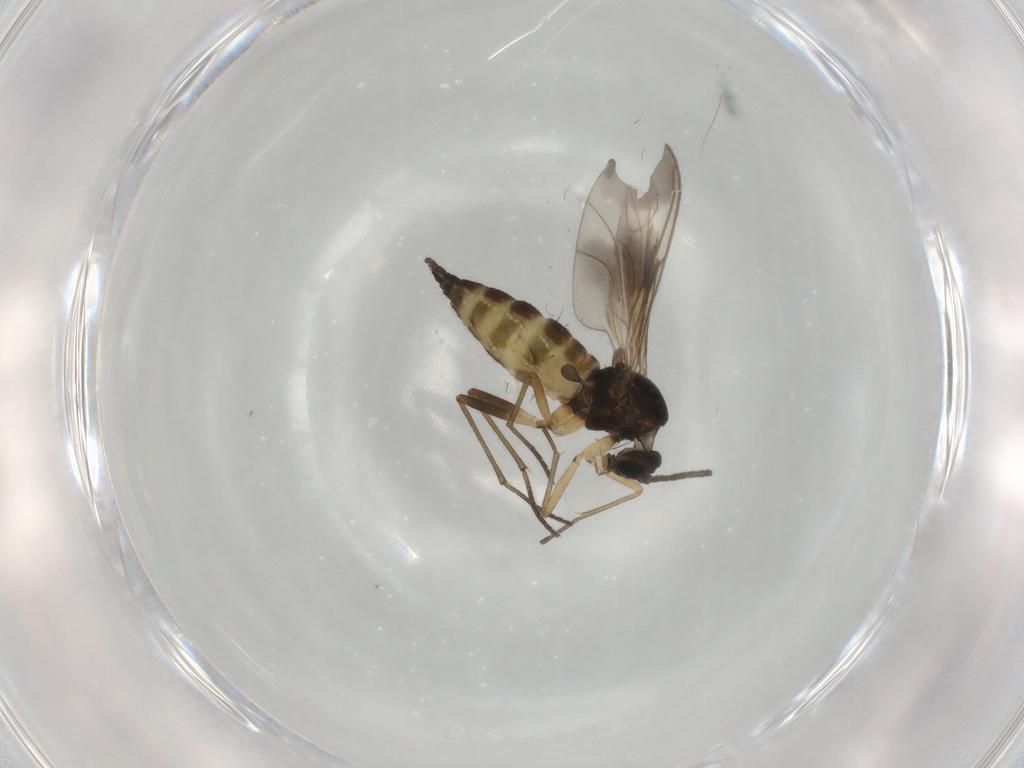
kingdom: Animalia
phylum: Arthropoda
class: Insecta
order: Diptera
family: Sciaridae
